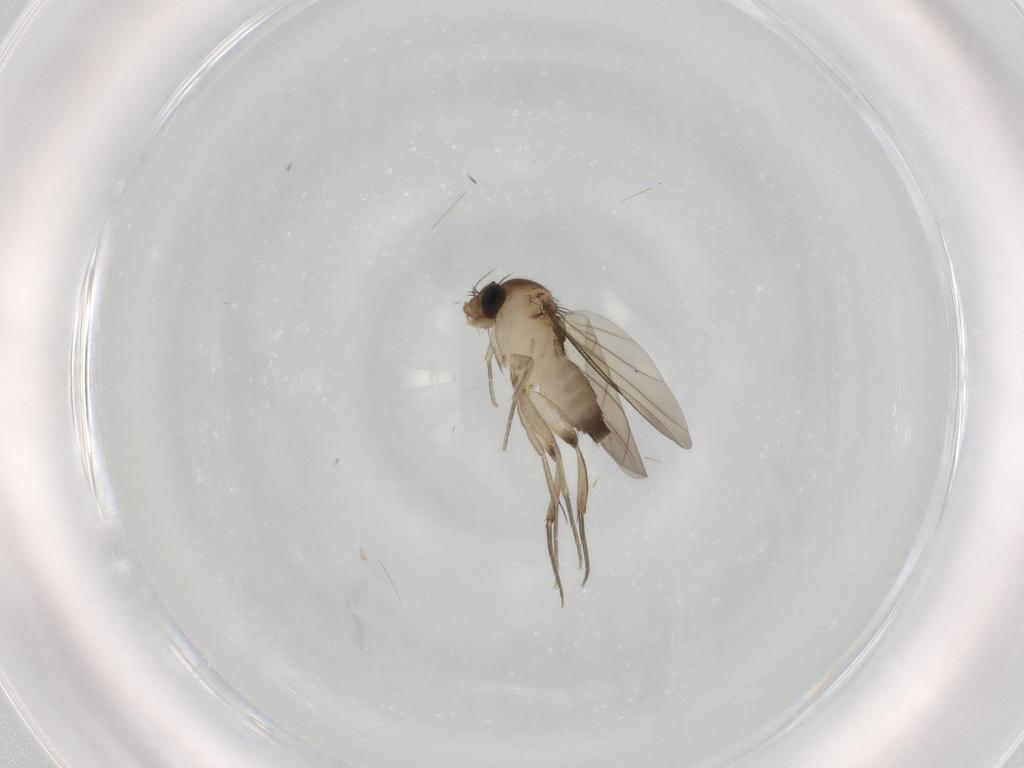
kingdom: Animalia
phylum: Arthropoda
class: Insecta
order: Diptera
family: Phoridae
